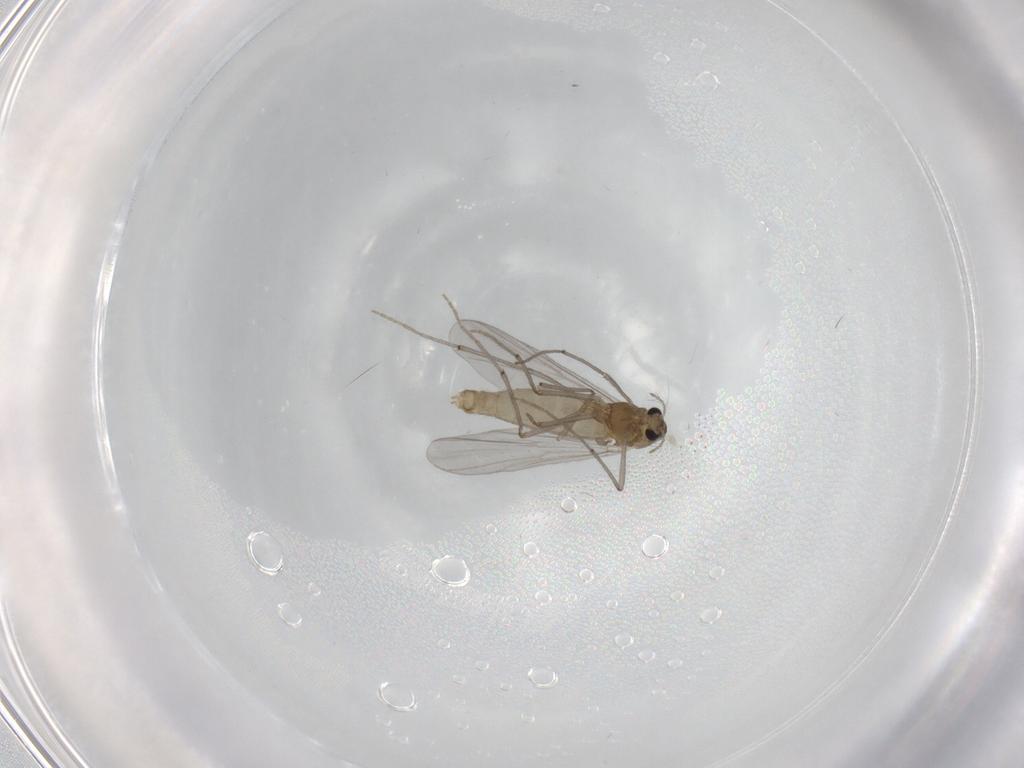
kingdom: Animalia
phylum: Arthropoda
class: Insecta
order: Diptera
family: Chironomidae
